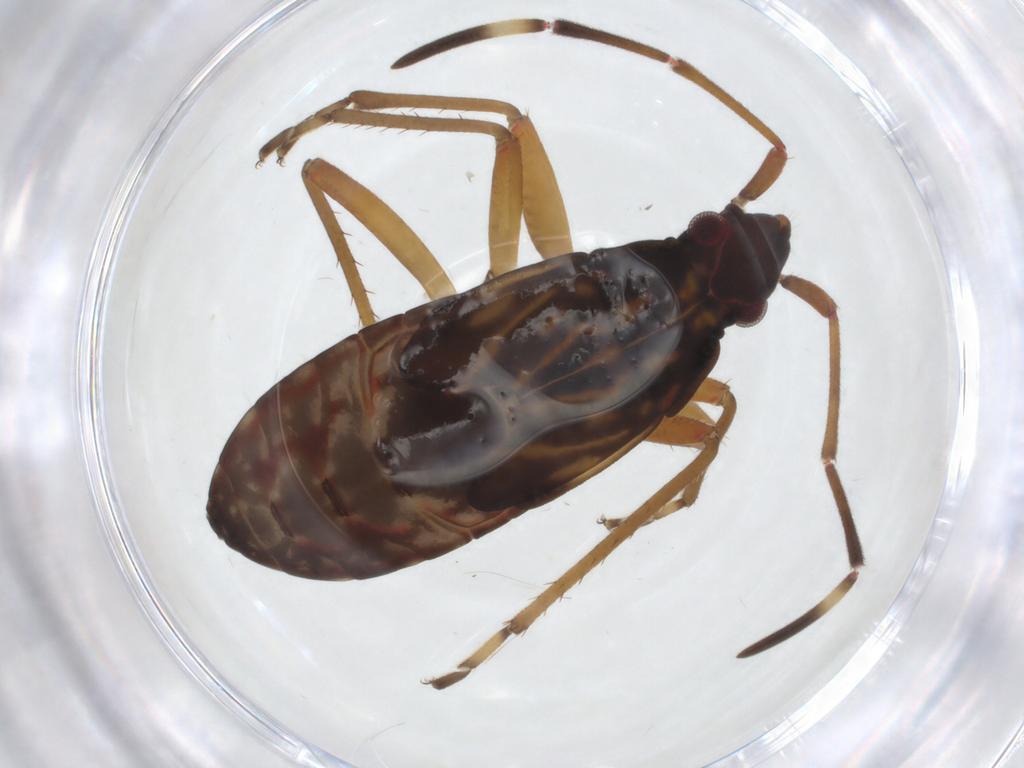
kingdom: Animalia
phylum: Arthropoda
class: Insecta
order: Hemiptera
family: Rhyparochromidae
